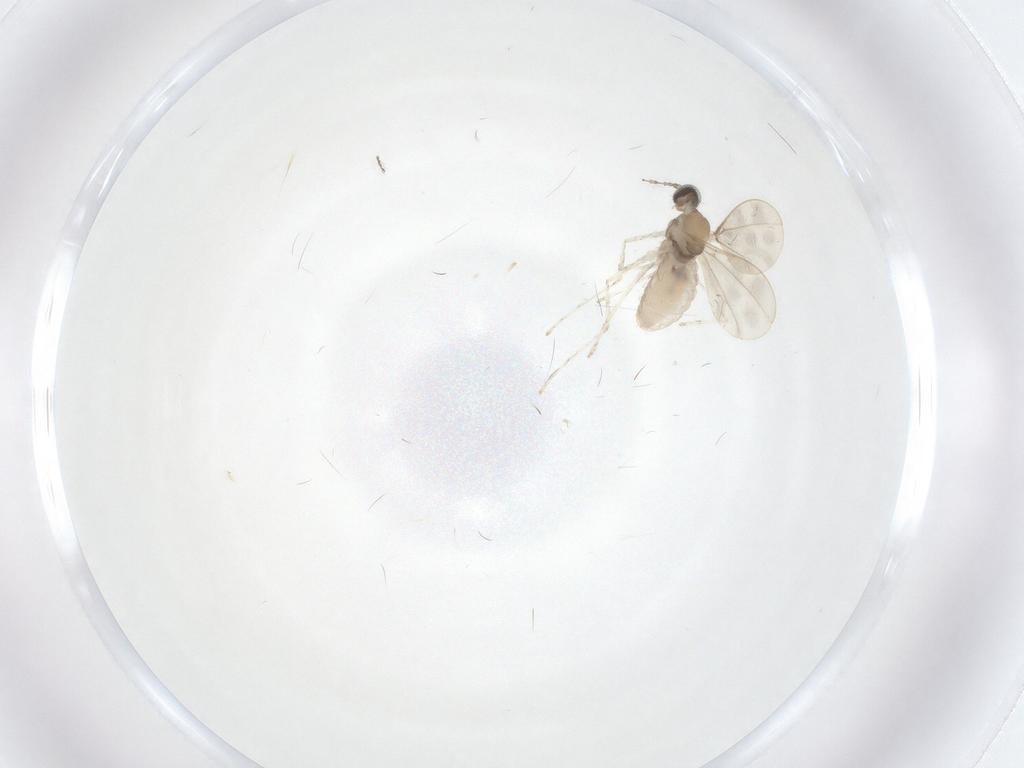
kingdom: Animalia
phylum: Arthropoda
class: Insecta
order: Diptera
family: Cecidomyiidae
